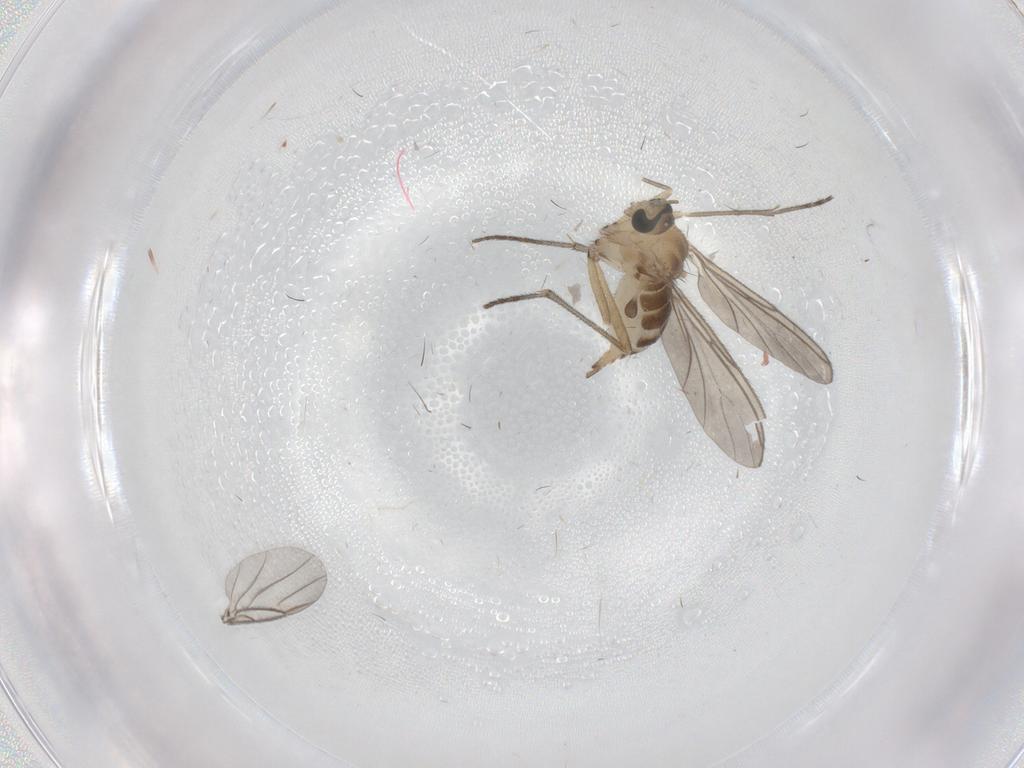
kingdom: Animalia
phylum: Arthropoda
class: Insecta
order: Diptera
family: Sciaridae
